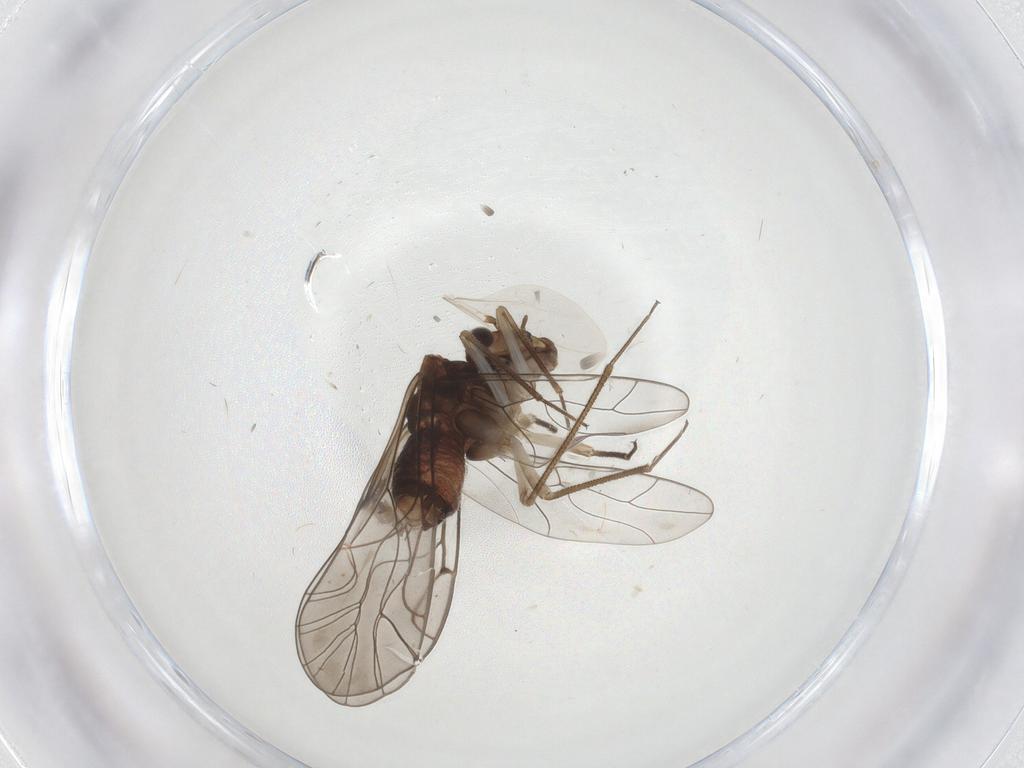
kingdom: Animalia
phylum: Arthropoda
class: Insecta
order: Psocodea
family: Lachesillidae
